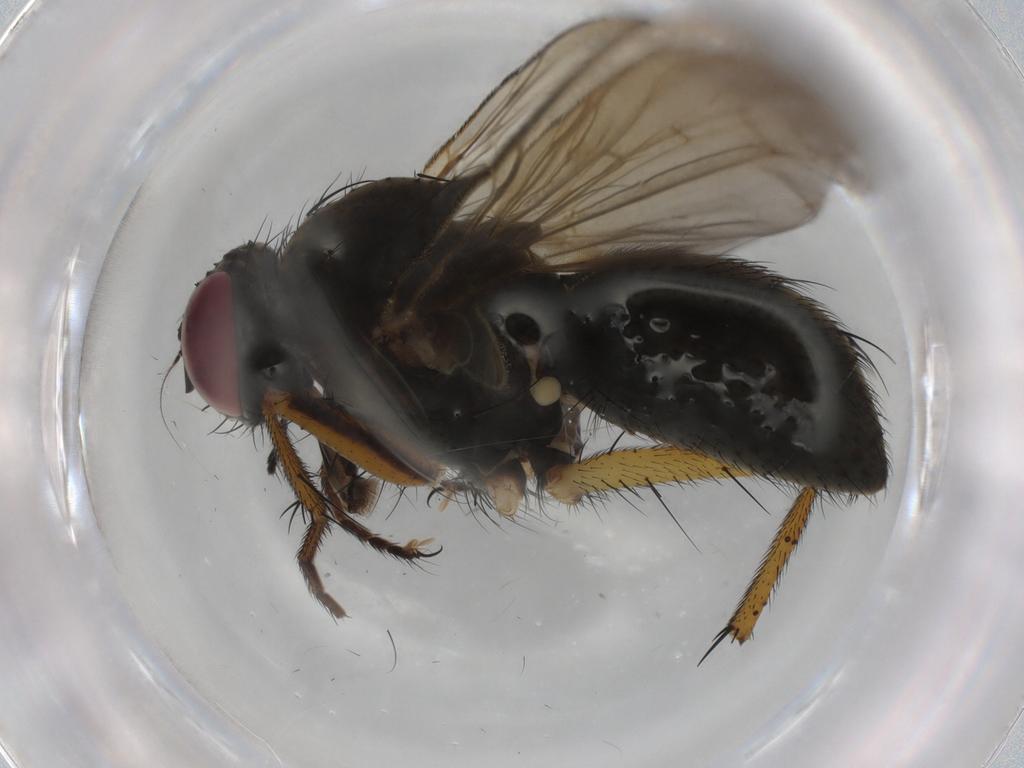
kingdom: Animalia
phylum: Arthropoda
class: Insecta
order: Diptera
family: Muscidae
